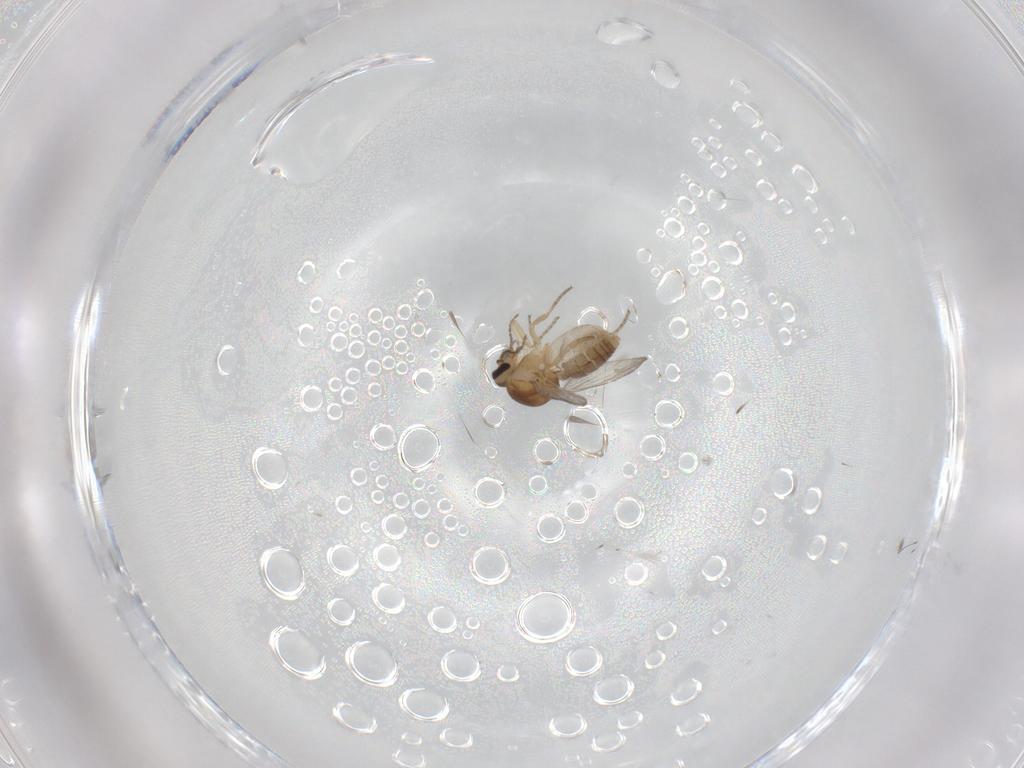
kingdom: Animalia
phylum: Arthropoda
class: Insecta
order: Diptera
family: Ceratopogonidae
